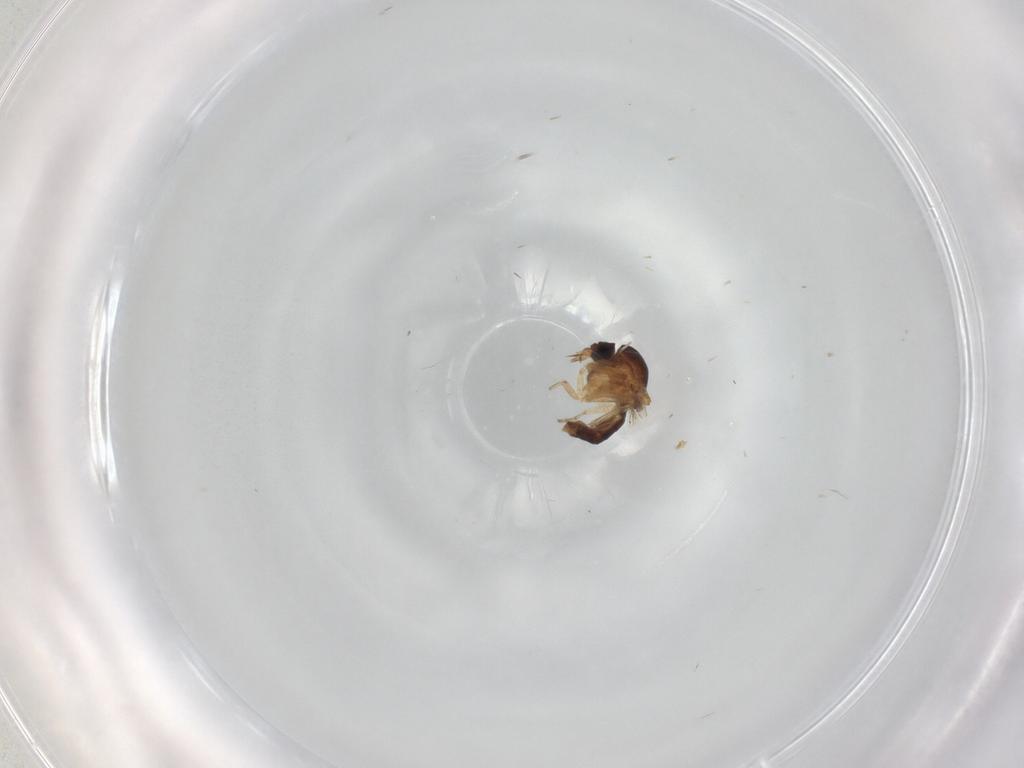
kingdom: Animalia
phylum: Arthropoda
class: Insecta
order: Diptera
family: Ceratopogonidae
